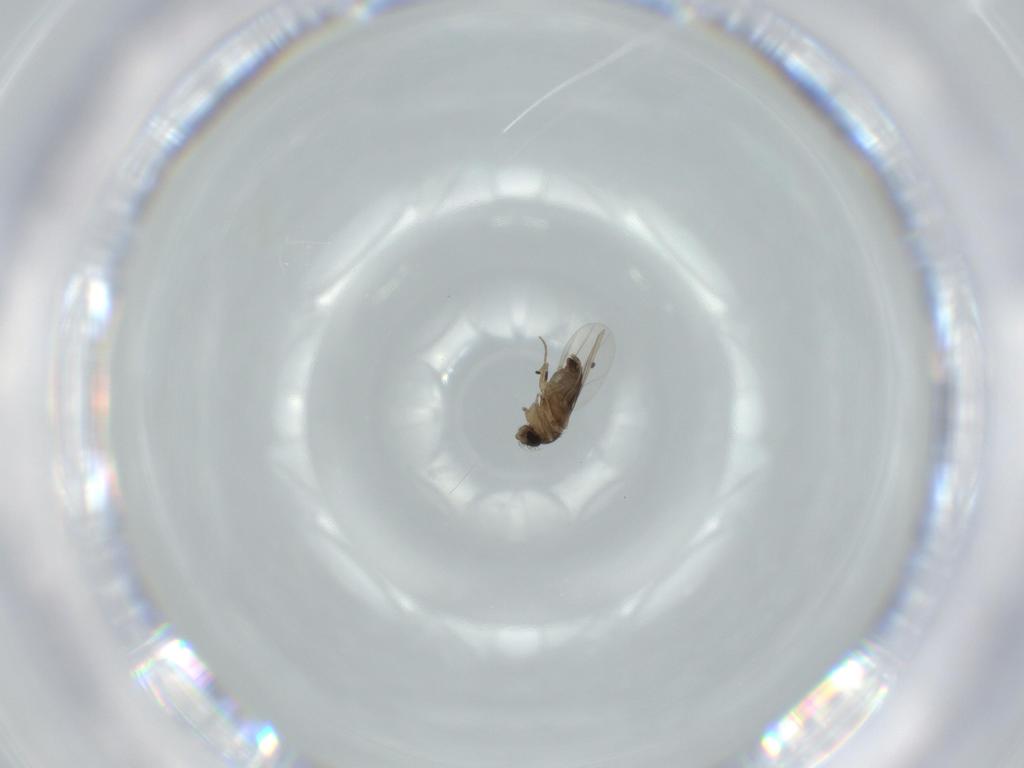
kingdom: Animalia
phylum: Arthropoda
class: Insecta
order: Diptera
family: Phoridae
